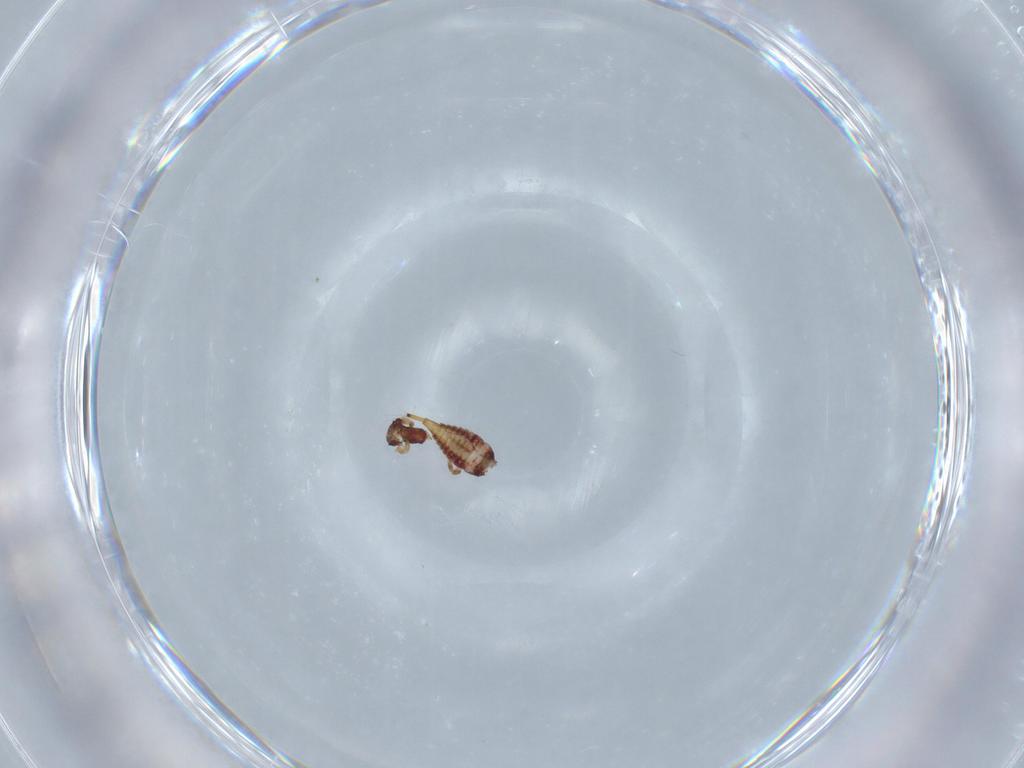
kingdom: Animalia
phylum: Arthropoda
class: Insecta
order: Thysanoptera
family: Phlaeothripidae
